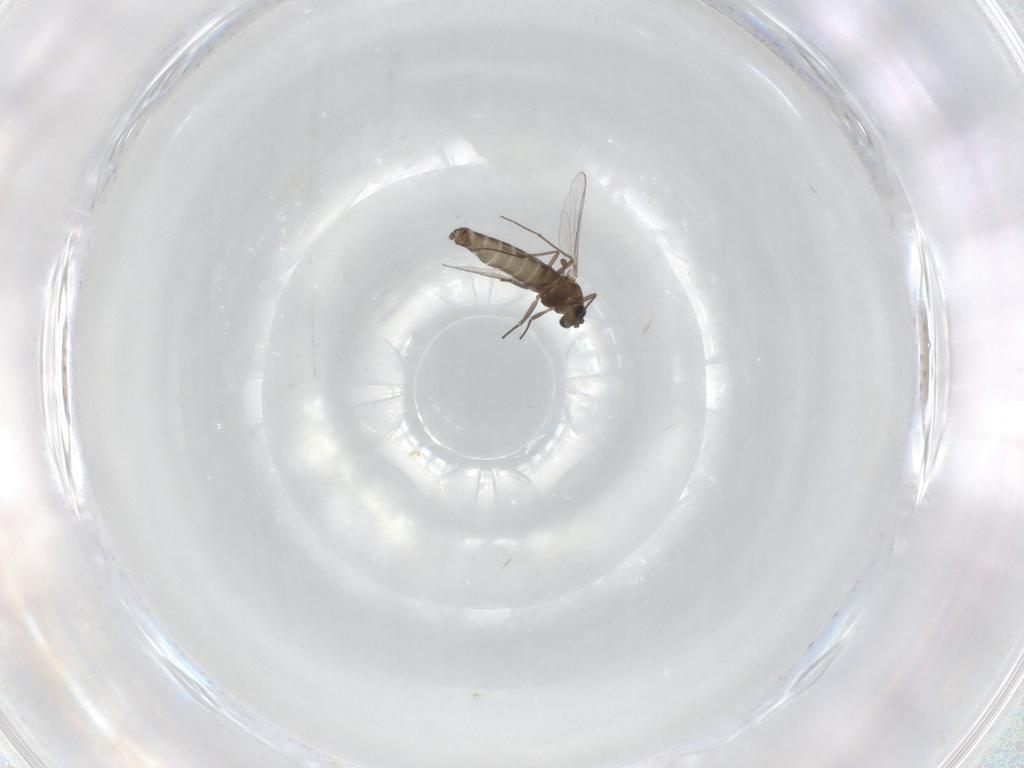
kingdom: Animalia
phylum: Arthropoda
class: Insecta
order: Diptera
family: Chironomidae
